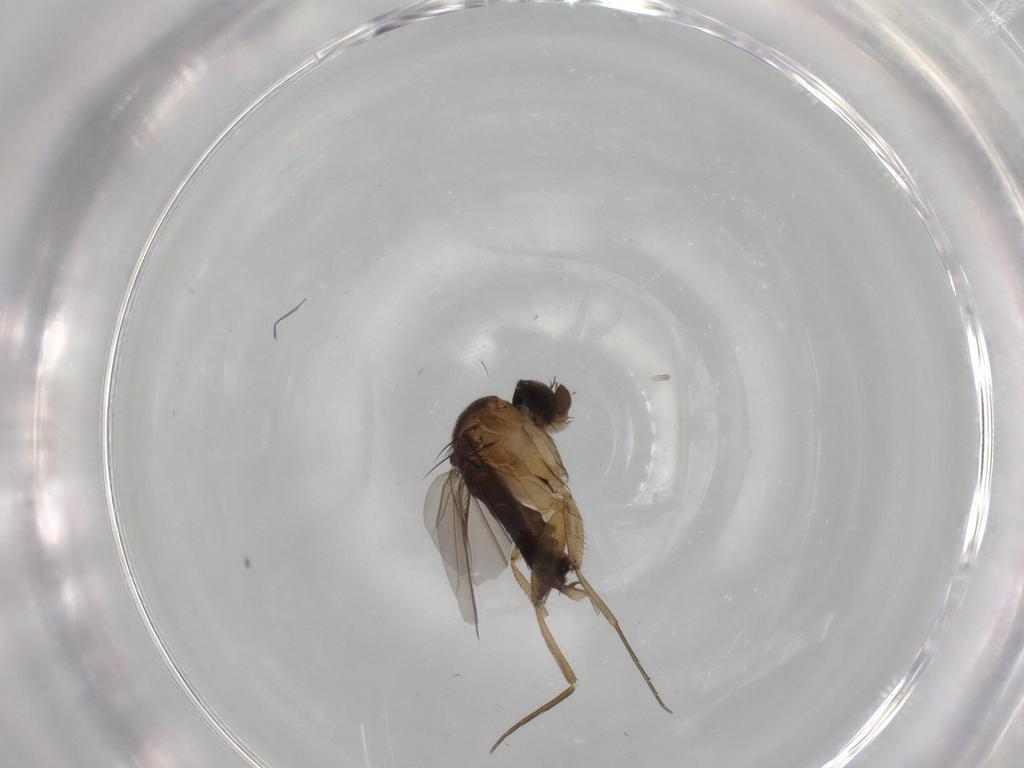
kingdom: Animalia
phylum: Arthropoda
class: Insecta
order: Diptera
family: Phoridae
